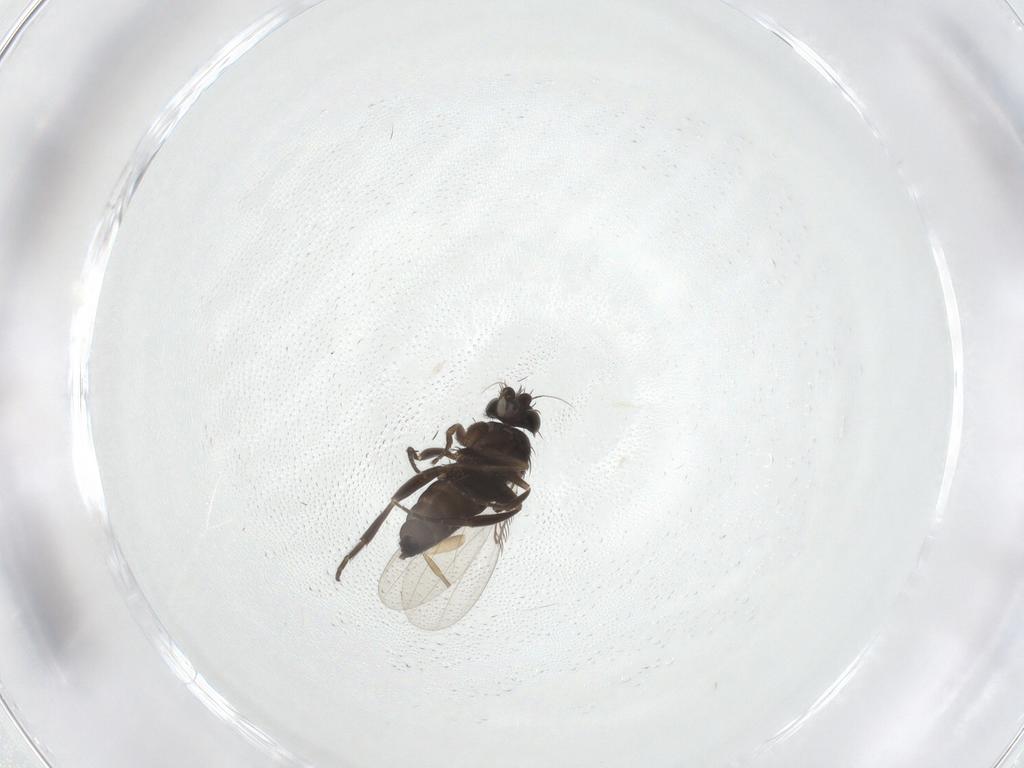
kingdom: Animalia
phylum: Arthropoda
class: Insecta
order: Diptera
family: Phoridae
